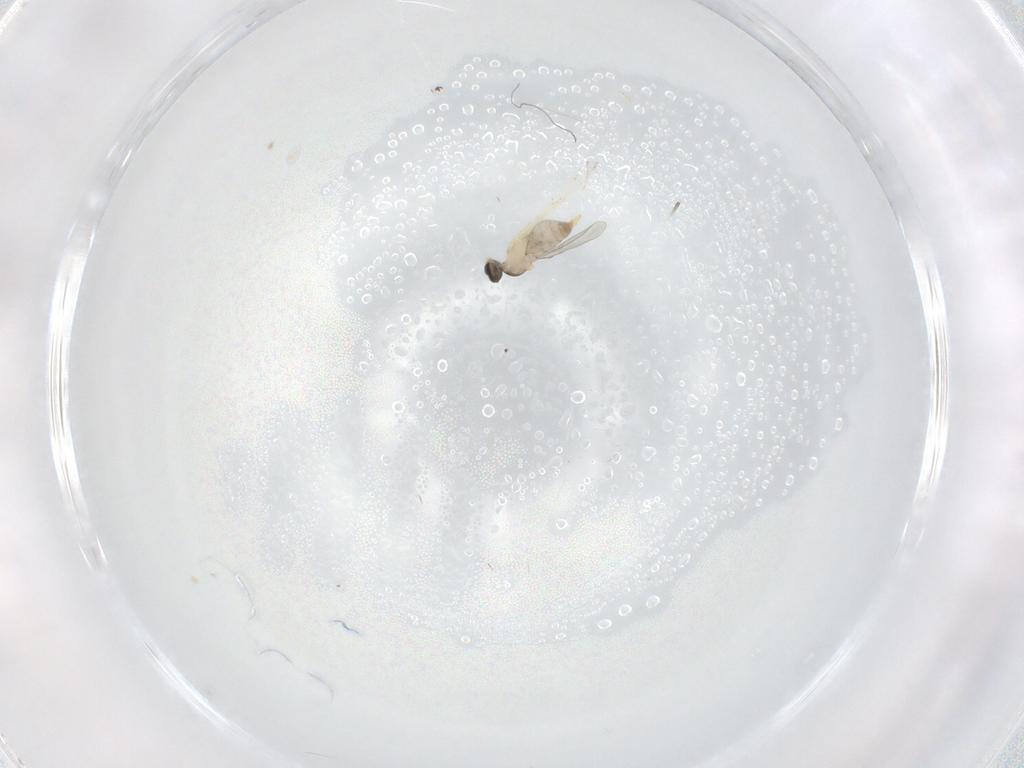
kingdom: Animalia
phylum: Arthropoda
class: Insecta
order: Diptera
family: Cecidomyiidae
